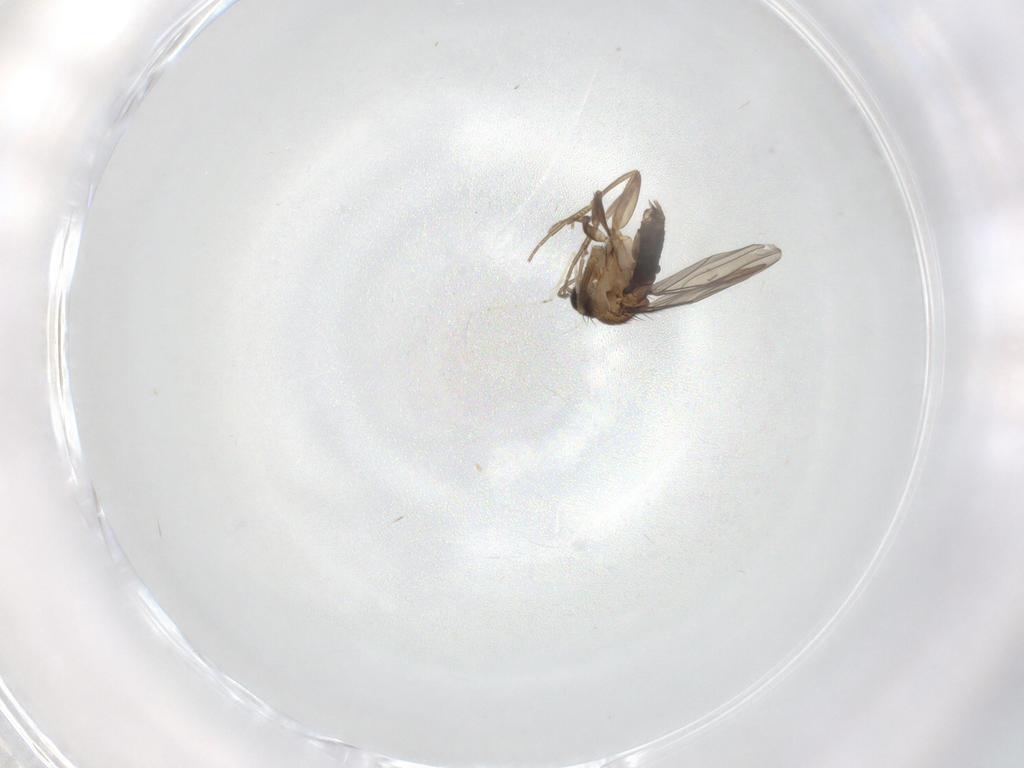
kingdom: Animalia
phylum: Arthropoda
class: Insecta
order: Diptera
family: Phoridae
